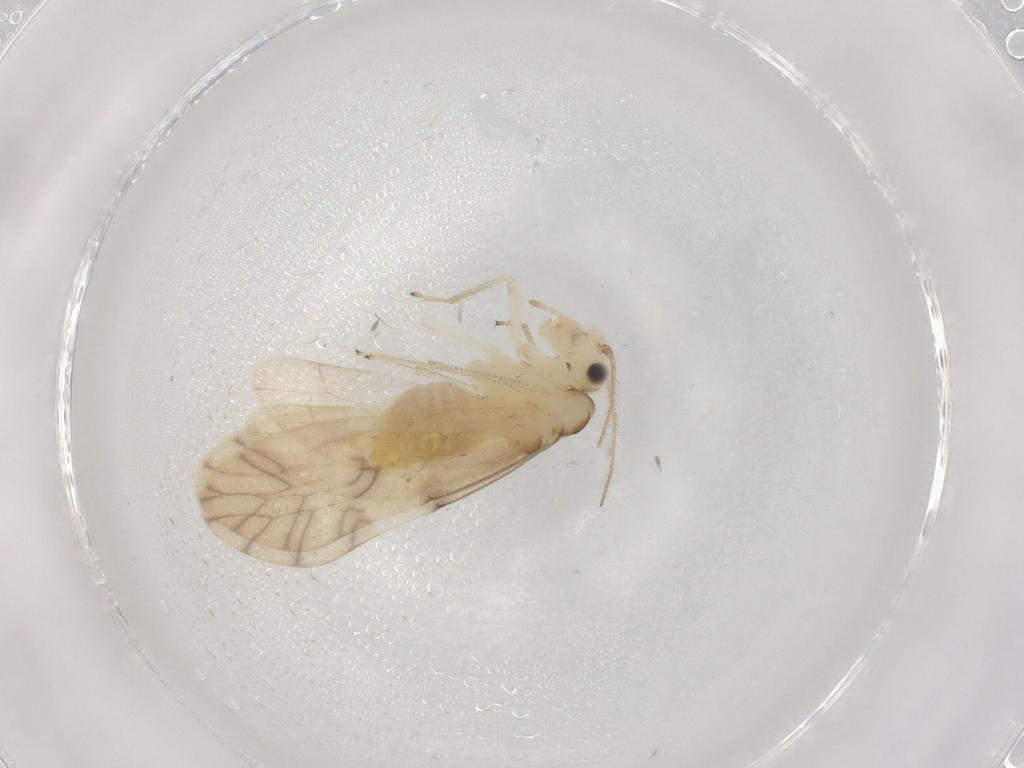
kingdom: Animalia
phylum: Arthropoda
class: Insecta
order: Psocodea
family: Caeciliusidae
